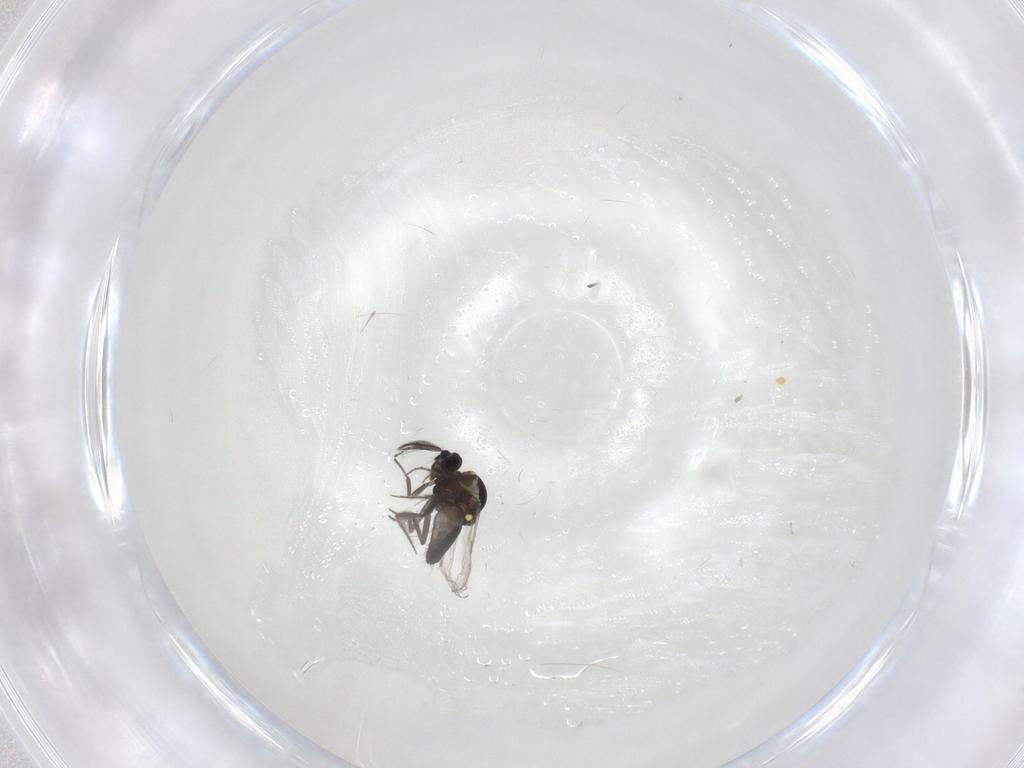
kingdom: Animalia
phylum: Arthropoda
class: Insecta
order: Diptera
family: Ceratopogonidae
